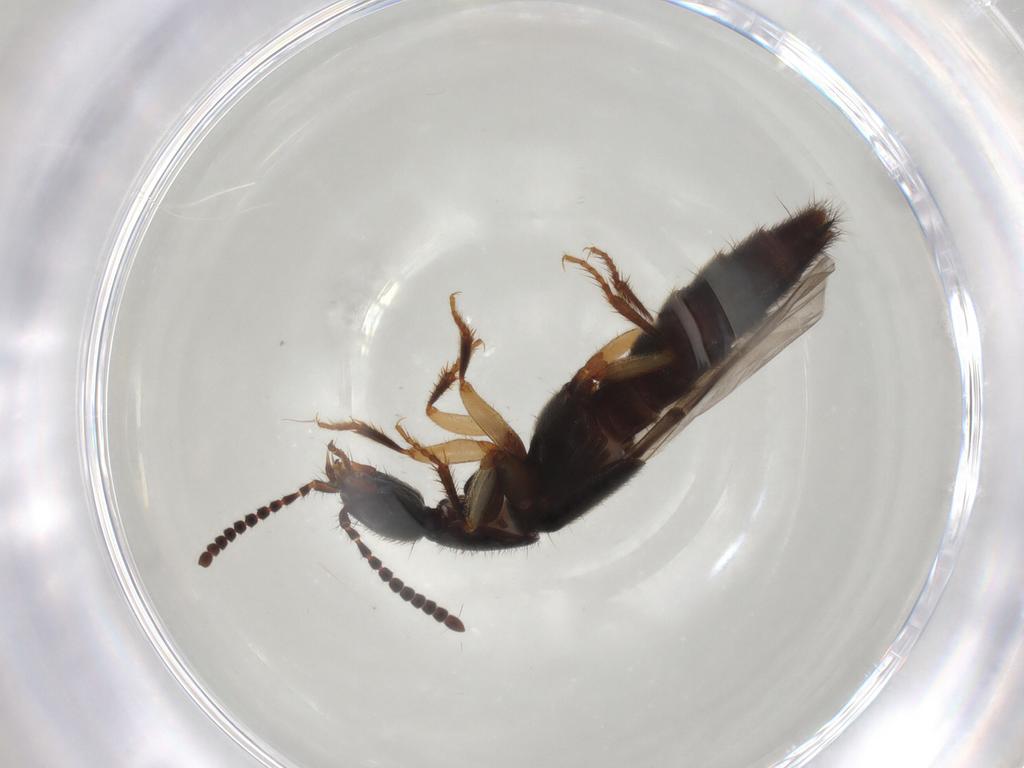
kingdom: Animalia
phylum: Arthropoda
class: Insecta
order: Coleoptera
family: Staphylinidae
